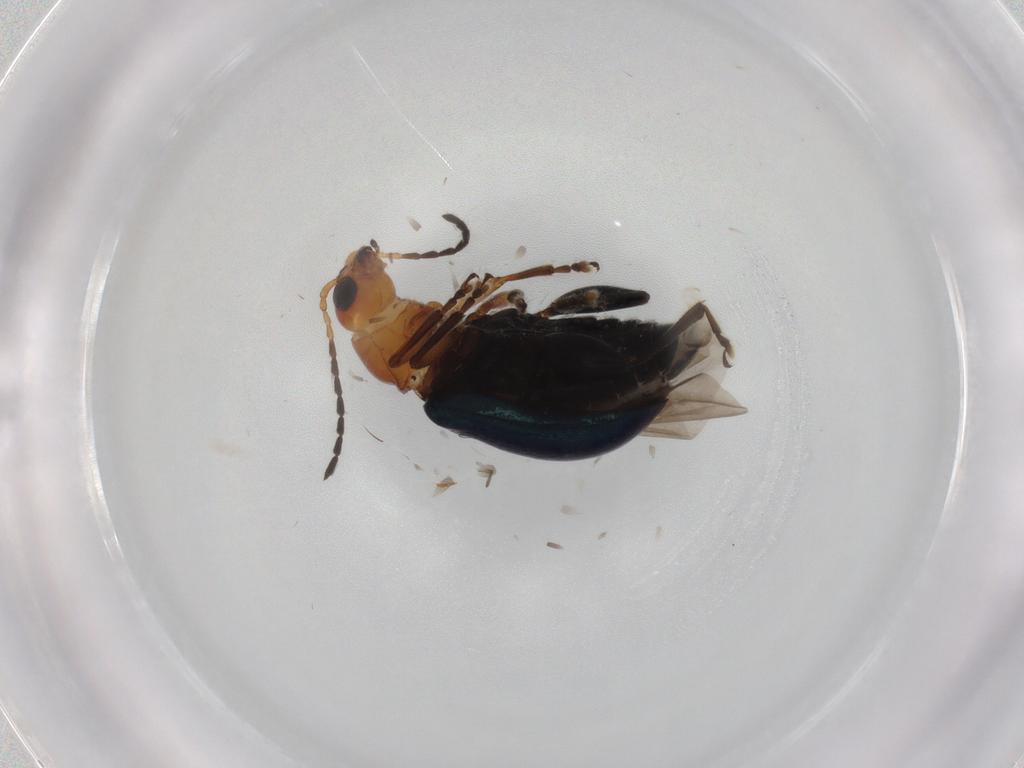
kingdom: Animalia
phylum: Arthropoda
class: Insecta
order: Coleoptera
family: Chrysomelidae
